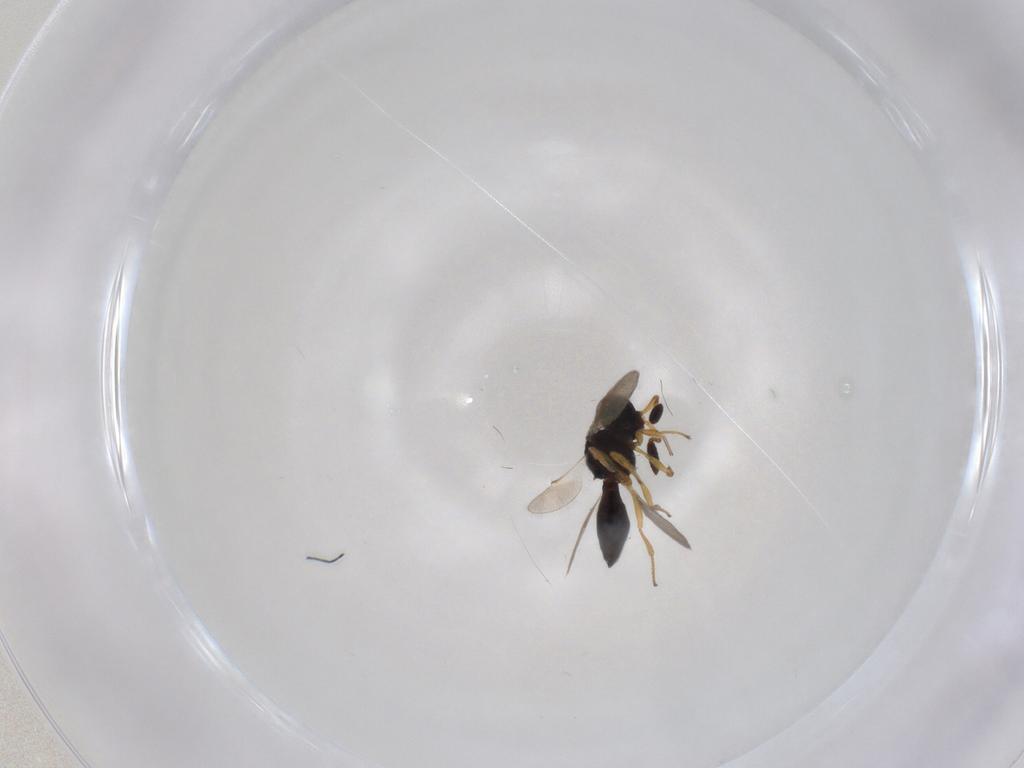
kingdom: Animalia
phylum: Arthropoda
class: Insecta
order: Hymenoptera
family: Scelionidae
